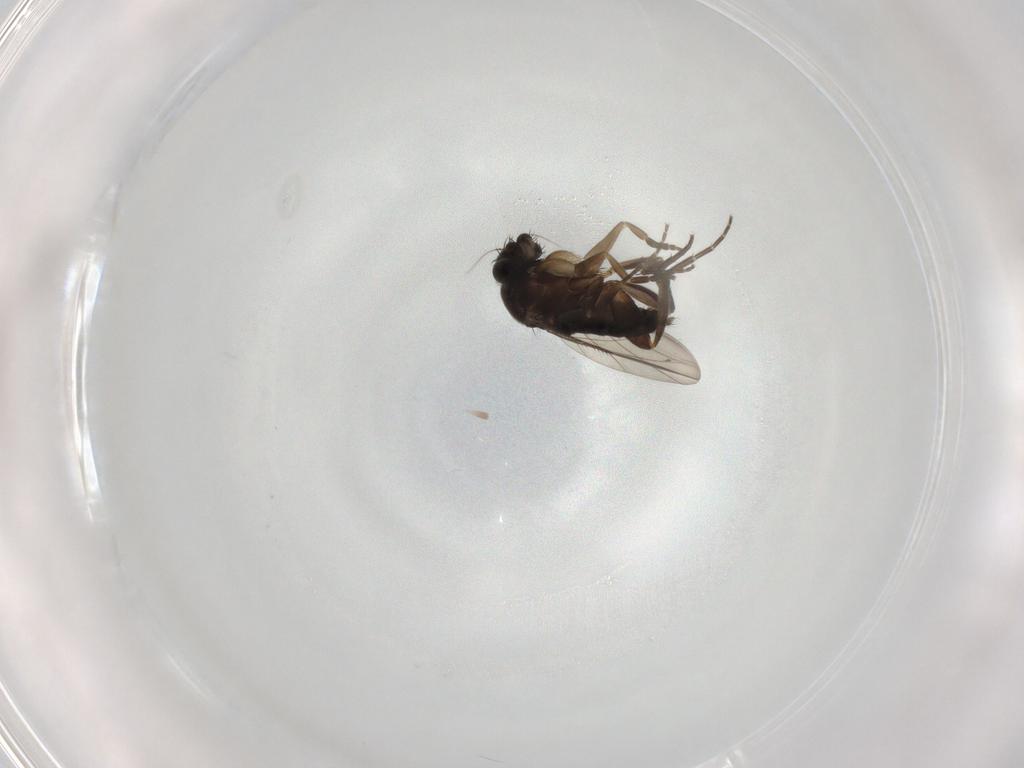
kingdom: Animalia
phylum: Arthropoda
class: Insecta
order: Diptera
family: Phoridae
